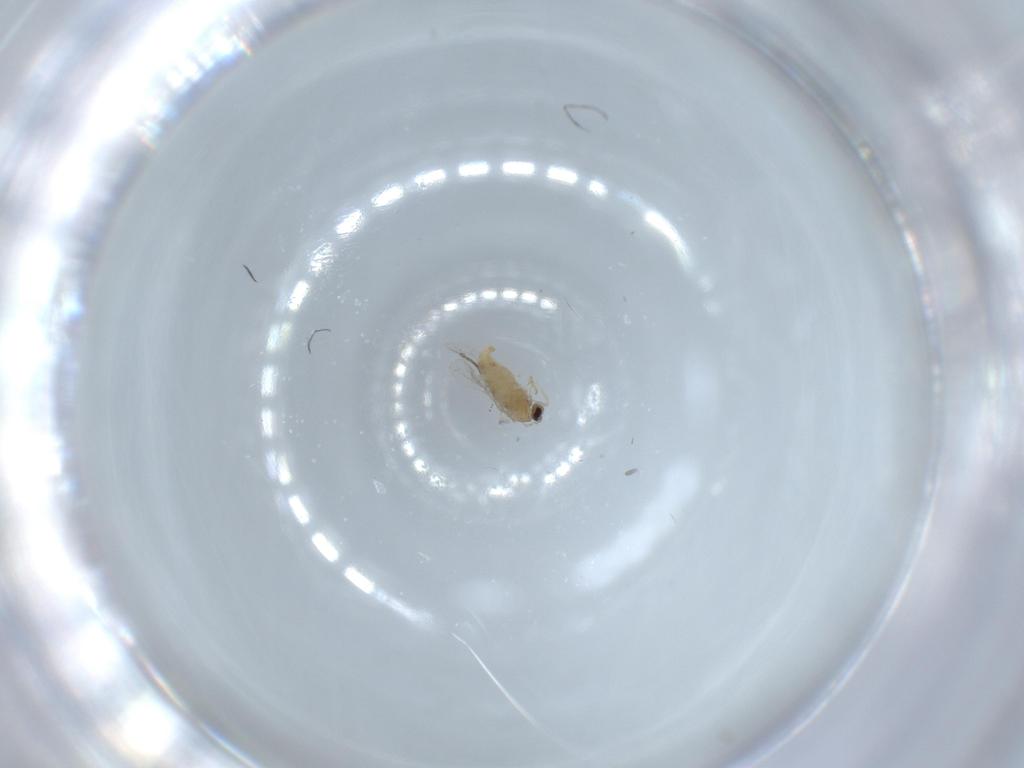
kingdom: Animalia
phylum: Arthropoda
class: Insecta
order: Diptera
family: Cecidomyiidae
